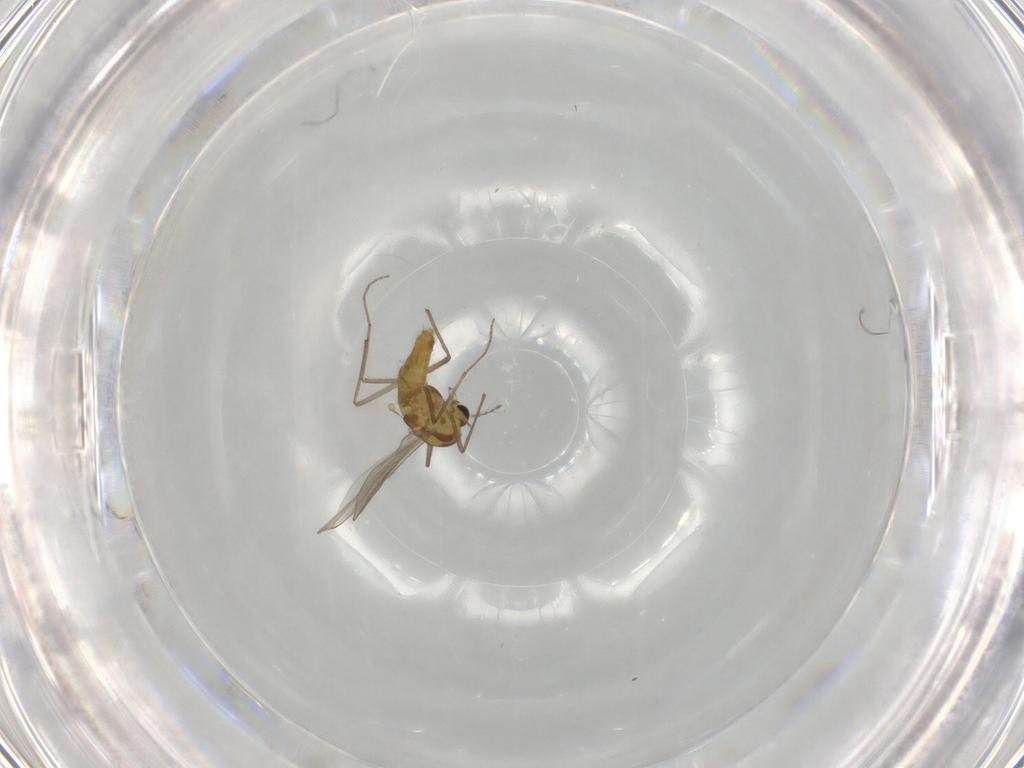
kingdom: Animalia
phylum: Arthropoda
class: Insecta
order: Diptera
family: Chironomidae
